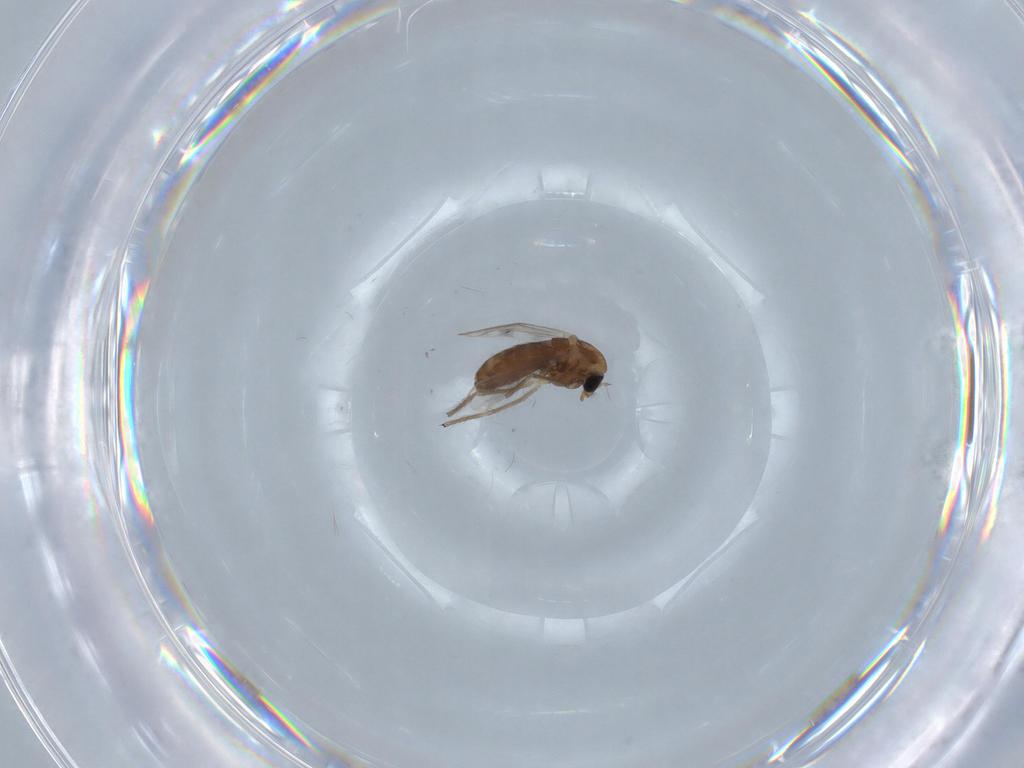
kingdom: Animalia
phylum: Arthropoda
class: Insecta
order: Diptera
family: Chironomidae
